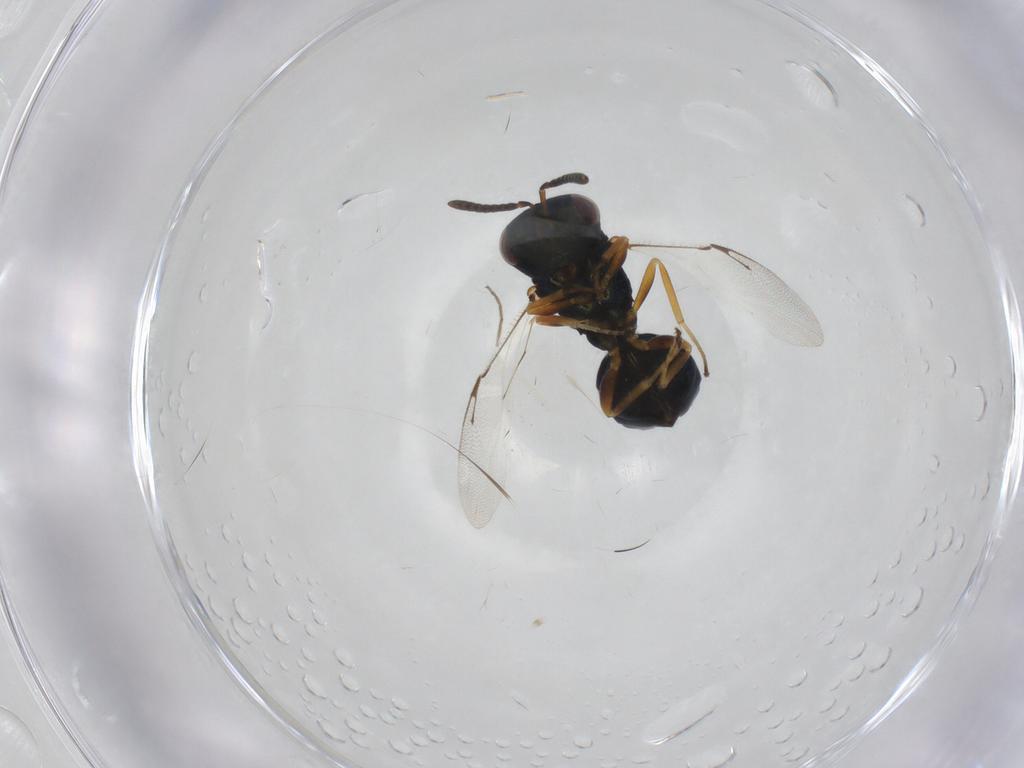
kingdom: Animalia
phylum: Arthropoda
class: Insecta
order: Hymenoptera
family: Pteromalidae
